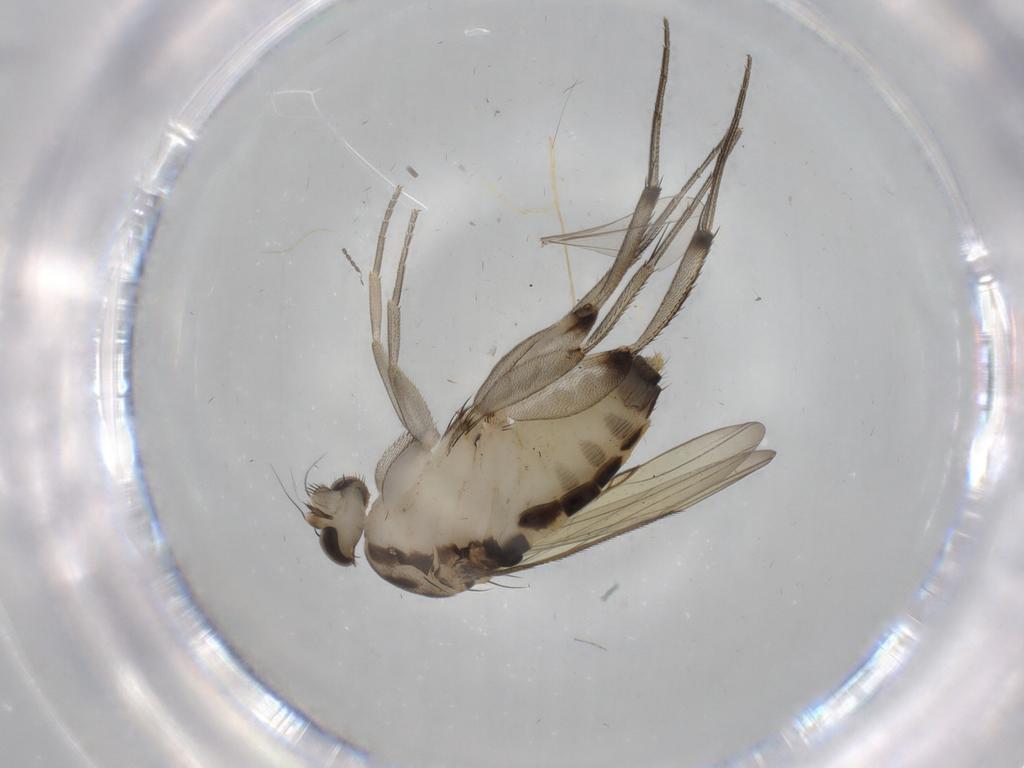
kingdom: Animalia
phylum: Arthropoda
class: Insecta
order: Diptera
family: Phoridae
